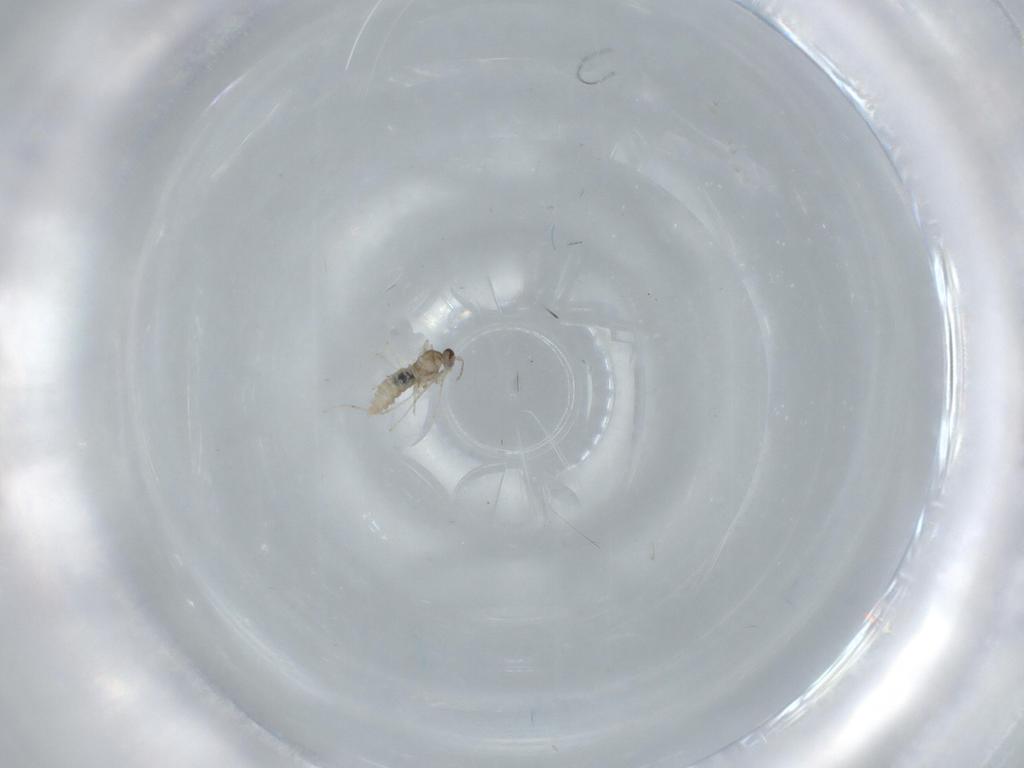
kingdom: Animalia
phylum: Arthropoda
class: Insecta
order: Diptera
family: Cecidomyiidae
